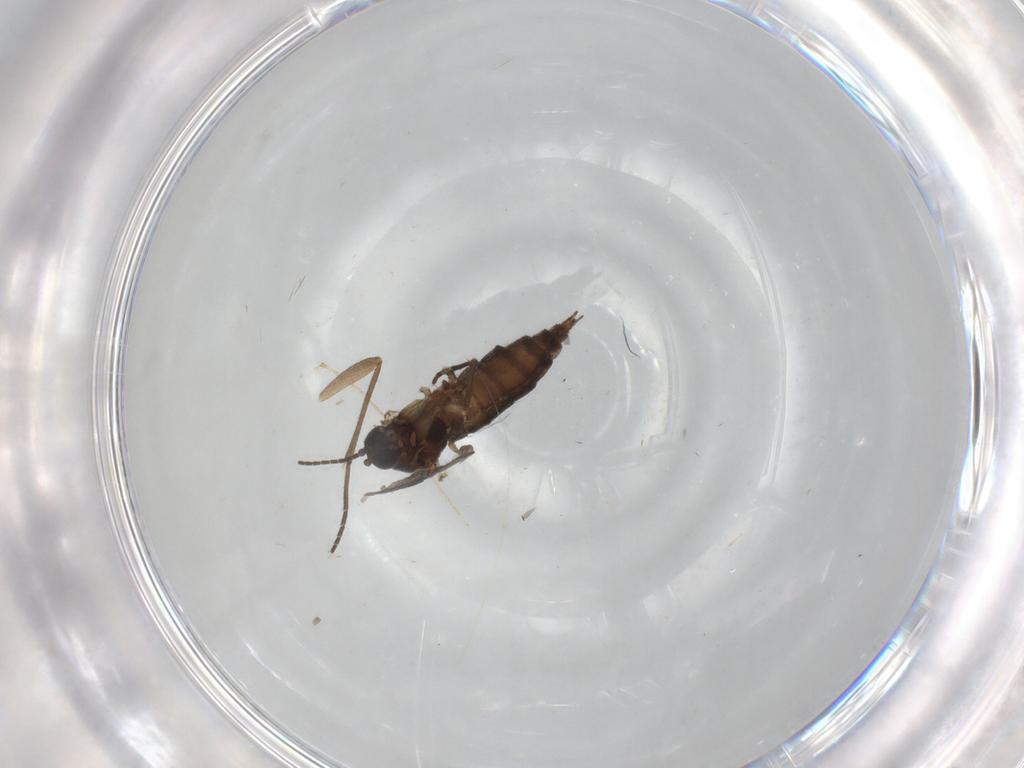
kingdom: Animalia
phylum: Arthropoda
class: Insecta
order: Diptera
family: Sciaridae
